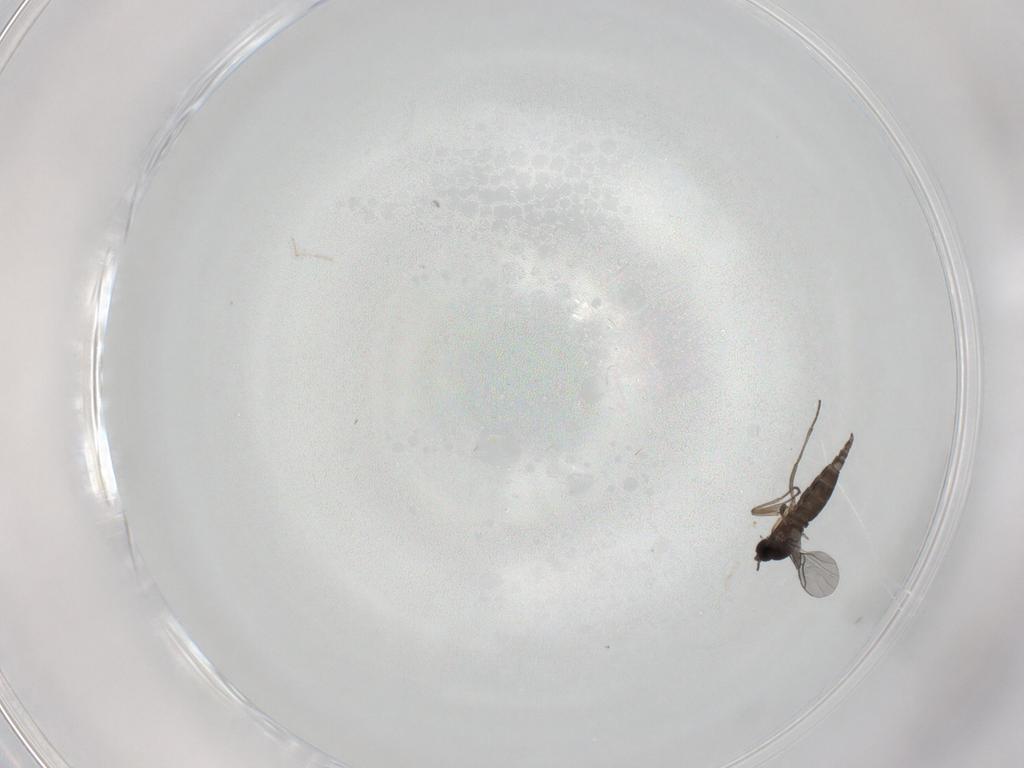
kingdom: Animalia
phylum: Arthropoda
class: Insecta
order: Diptera
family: Sciaridae
